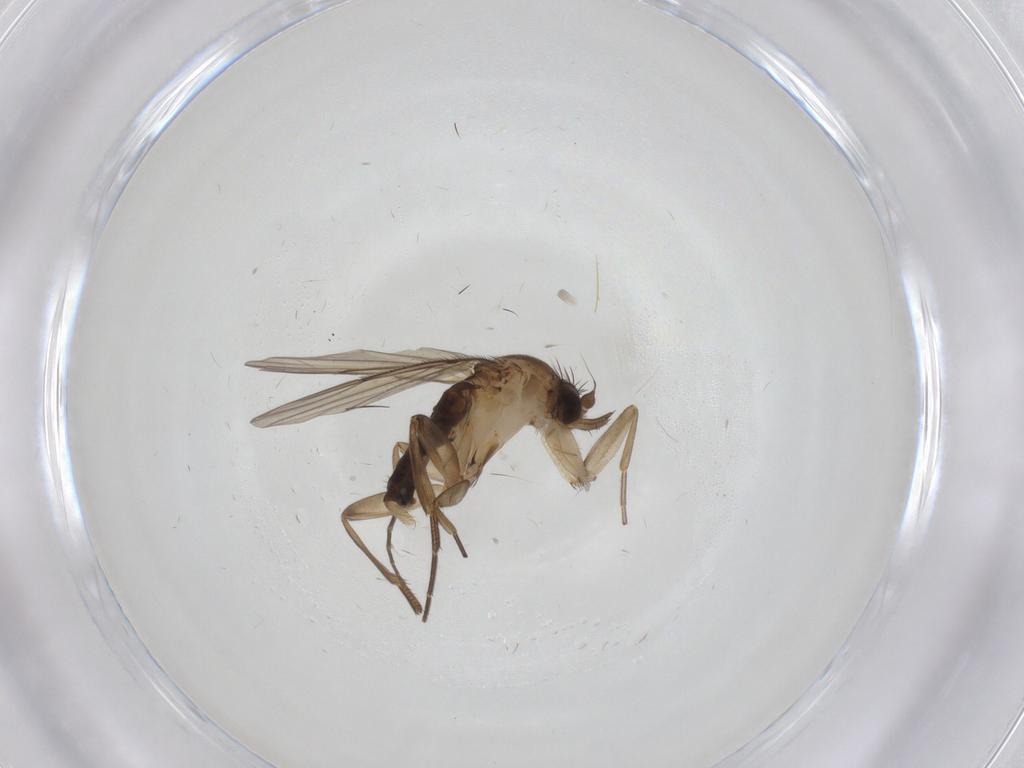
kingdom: Animalia
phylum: Arthropoda
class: Insecta
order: Diptera
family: Phoridae
